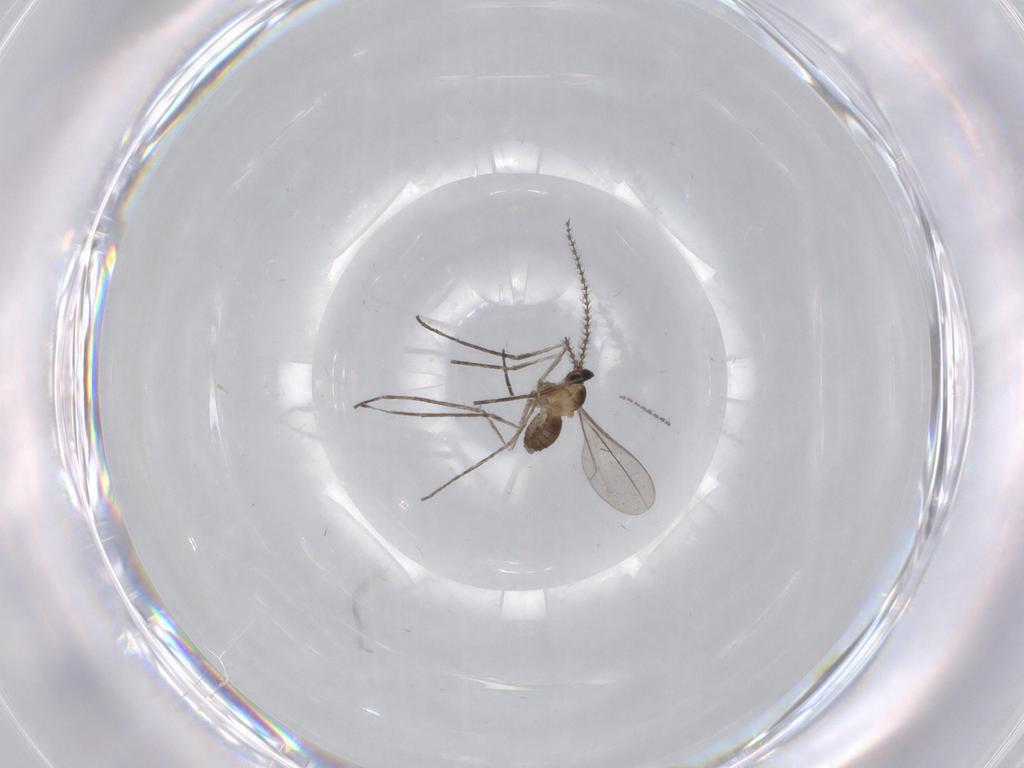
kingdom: Animalia
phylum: Arthropoda
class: Insecta
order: Diptera
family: Cecidomyiidae
